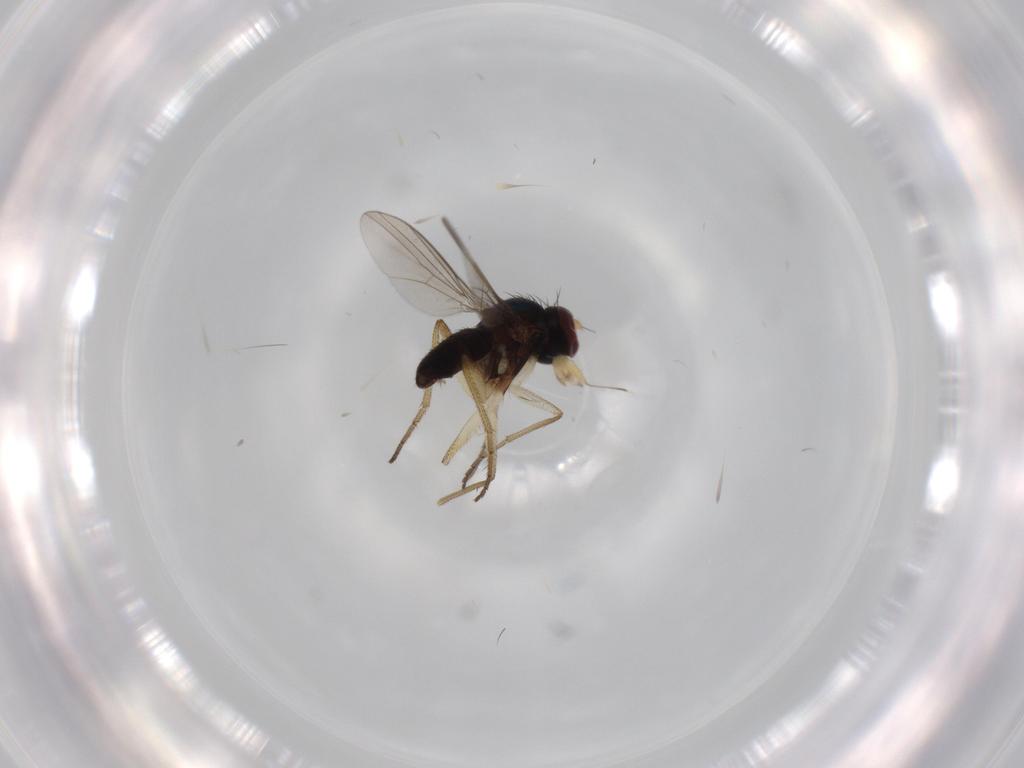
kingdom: Animalia
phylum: Arthropoda
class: Insecta
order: Diptera
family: Dolichopodidae
